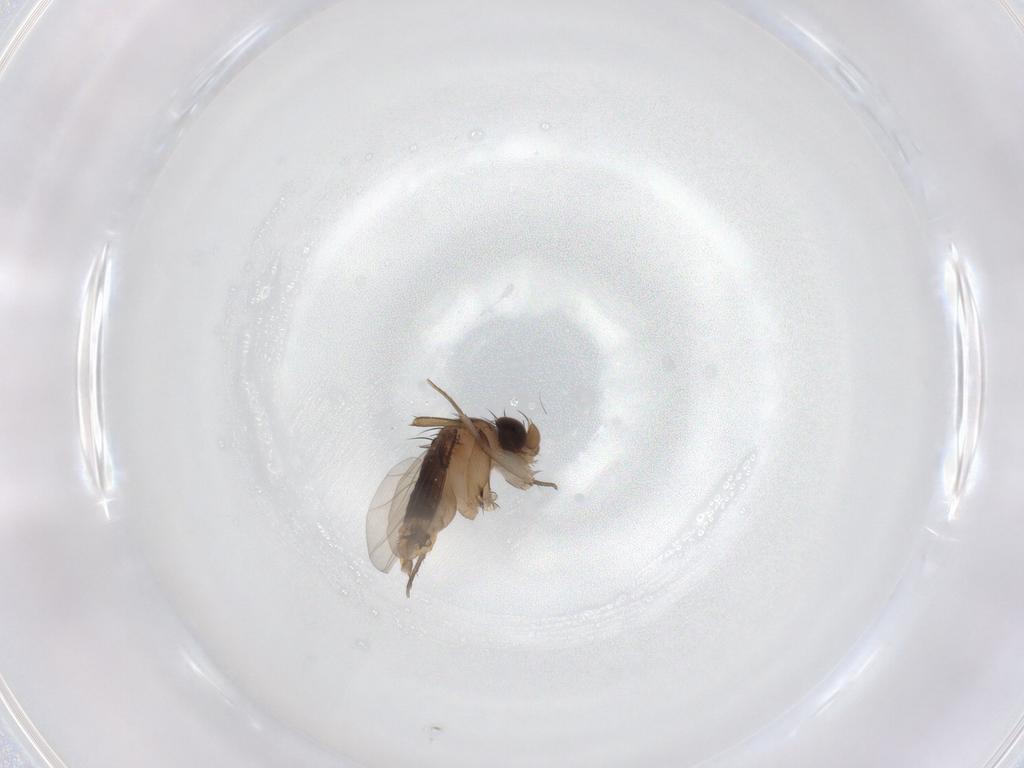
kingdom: Animalia
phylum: Arthropoda
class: Insecta
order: Diptera
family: Phoridae
